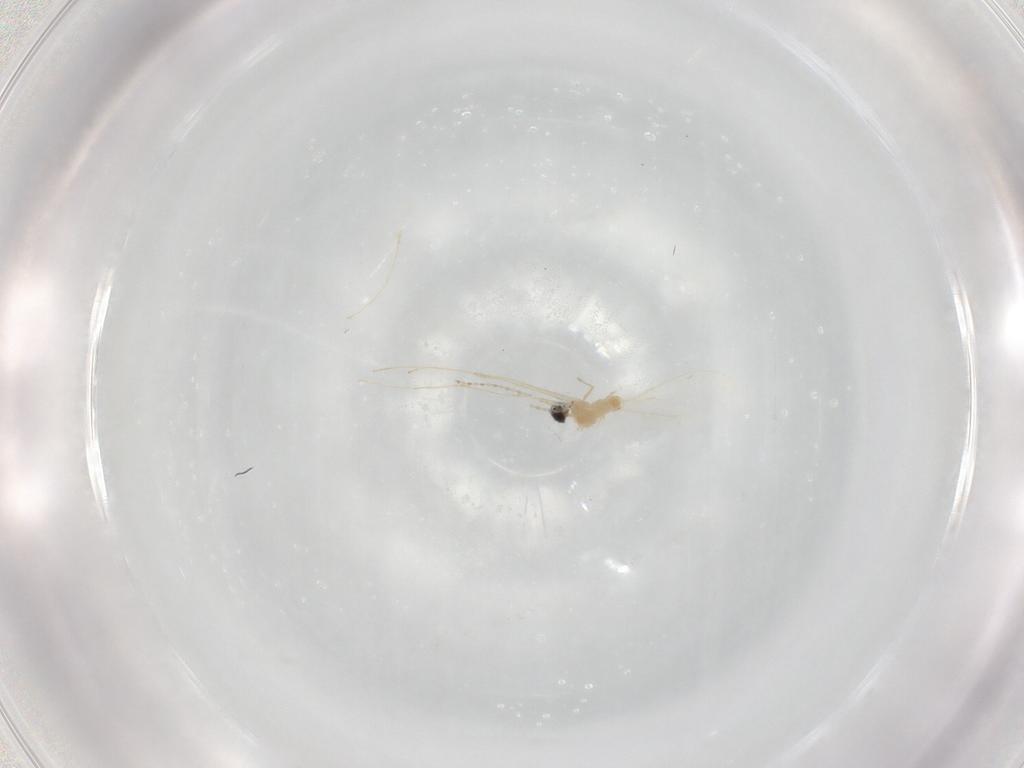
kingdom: Animalia
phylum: Arthropoda
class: Insecta
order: Diptera
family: Cecidomyiidae
